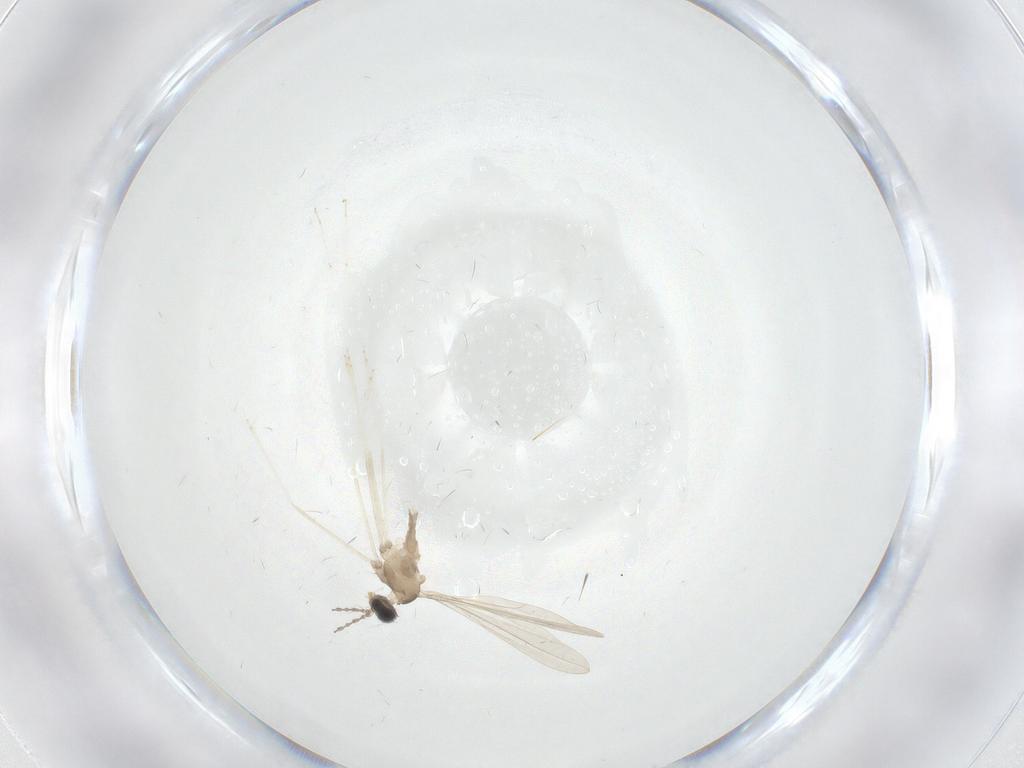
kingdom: Animalia
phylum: Arthropoda
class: Insecta
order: Diptera
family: Cecidomyiidae
